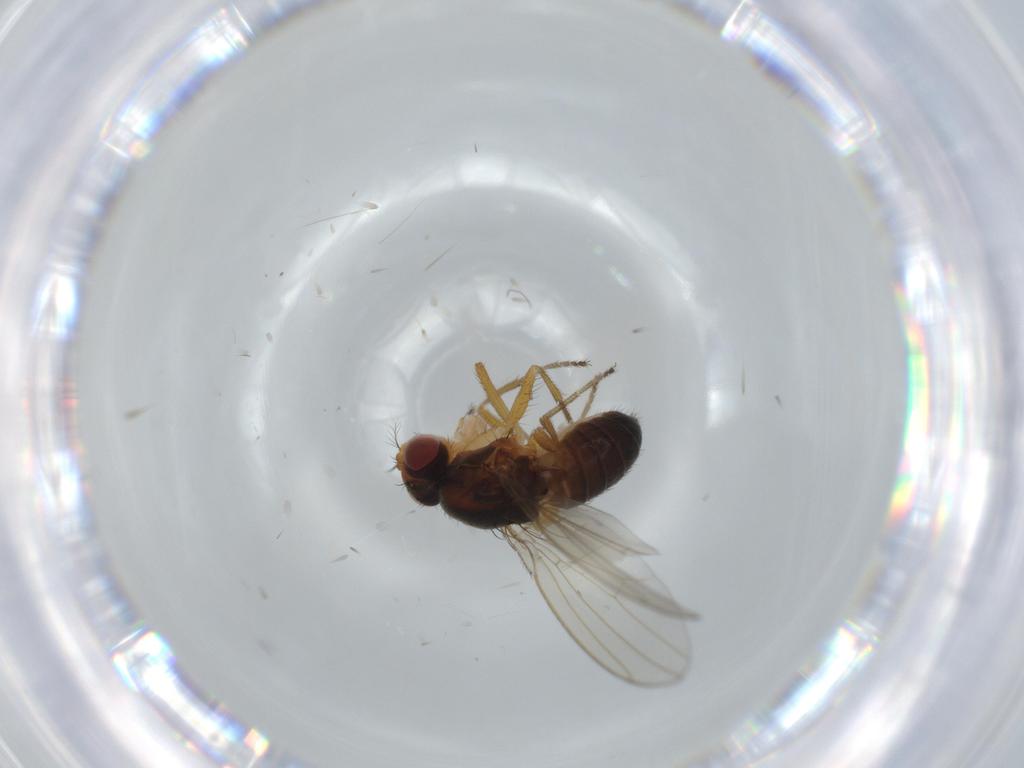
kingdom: Animalia
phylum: Arthropoda
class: Insecta
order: Diptera
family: Drosophilidae
